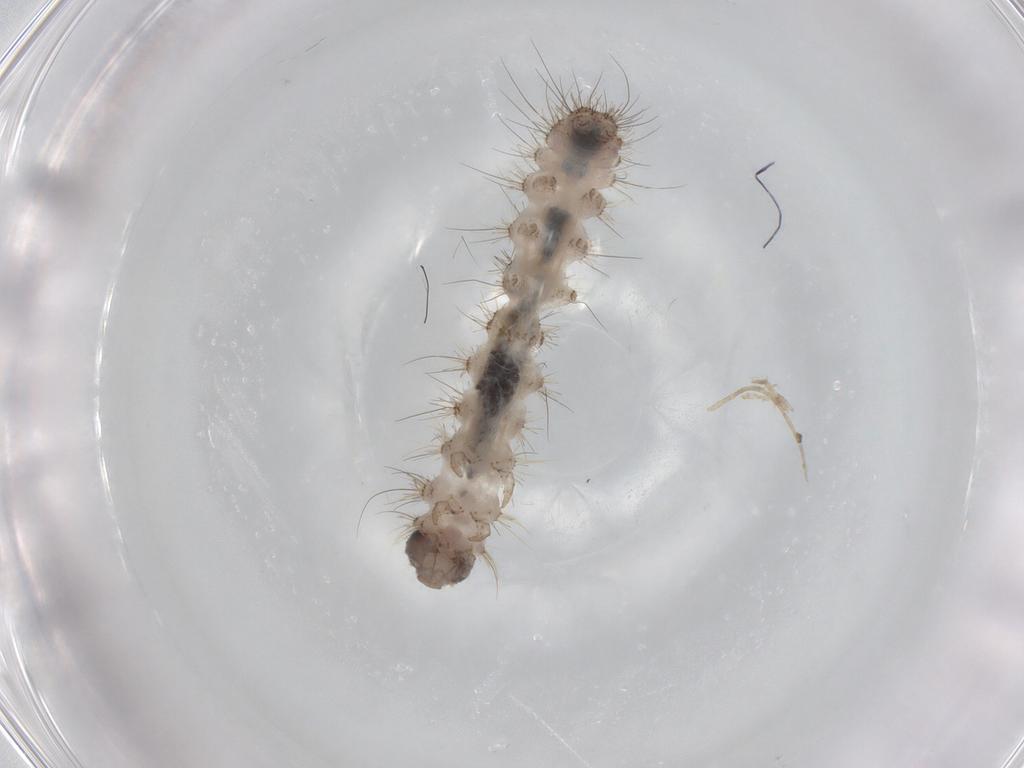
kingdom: Animalia
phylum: Arthropoda
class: Insecta
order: Lepidoptera
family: Erebidae
